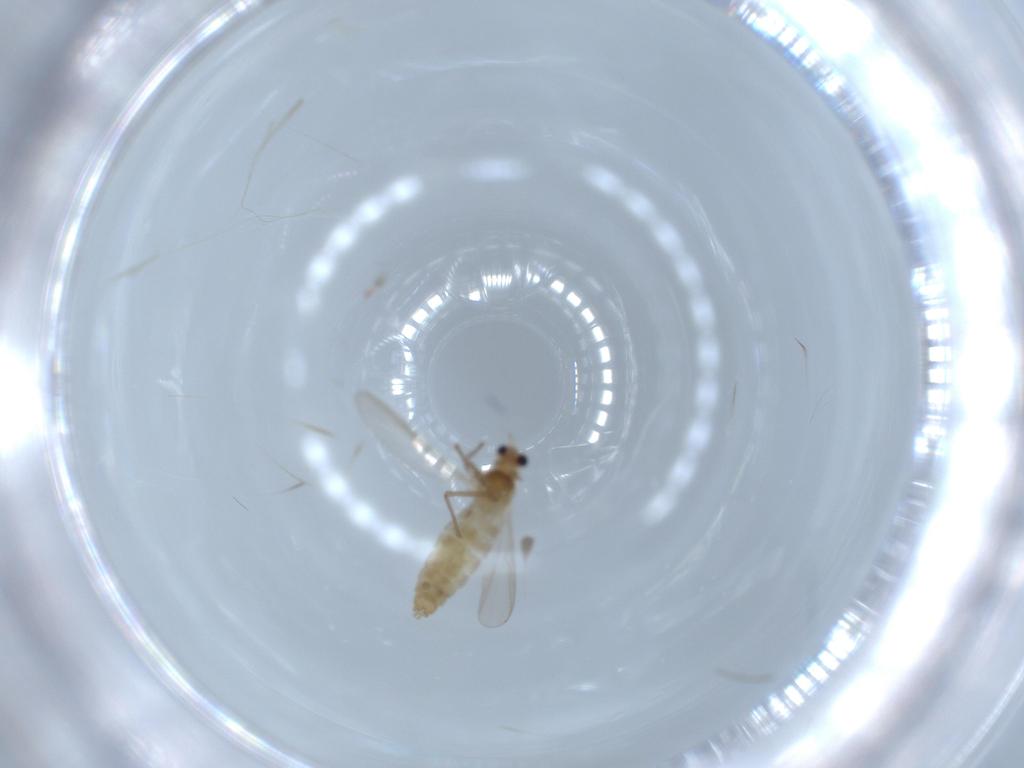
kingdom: Animalia
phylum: Arthropoda
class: Insecta
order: Diptera
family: Chironomidae
